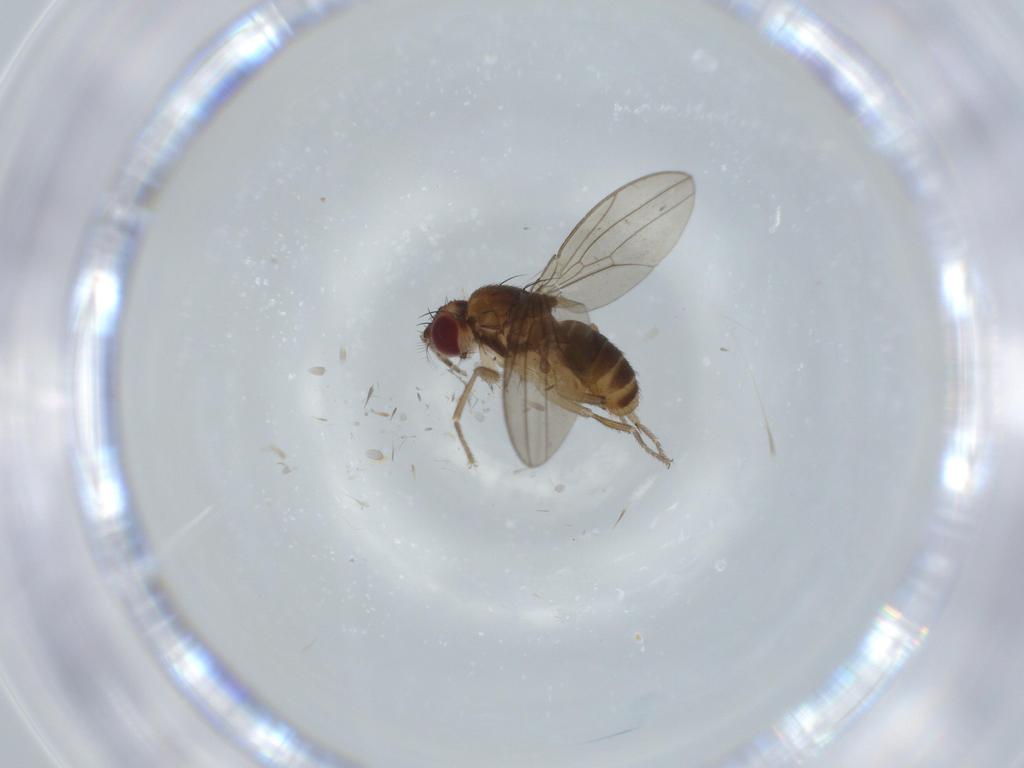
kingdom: Animalia
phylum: Arthropoda
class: Insecta
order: Diptera
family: Drosophilidae
